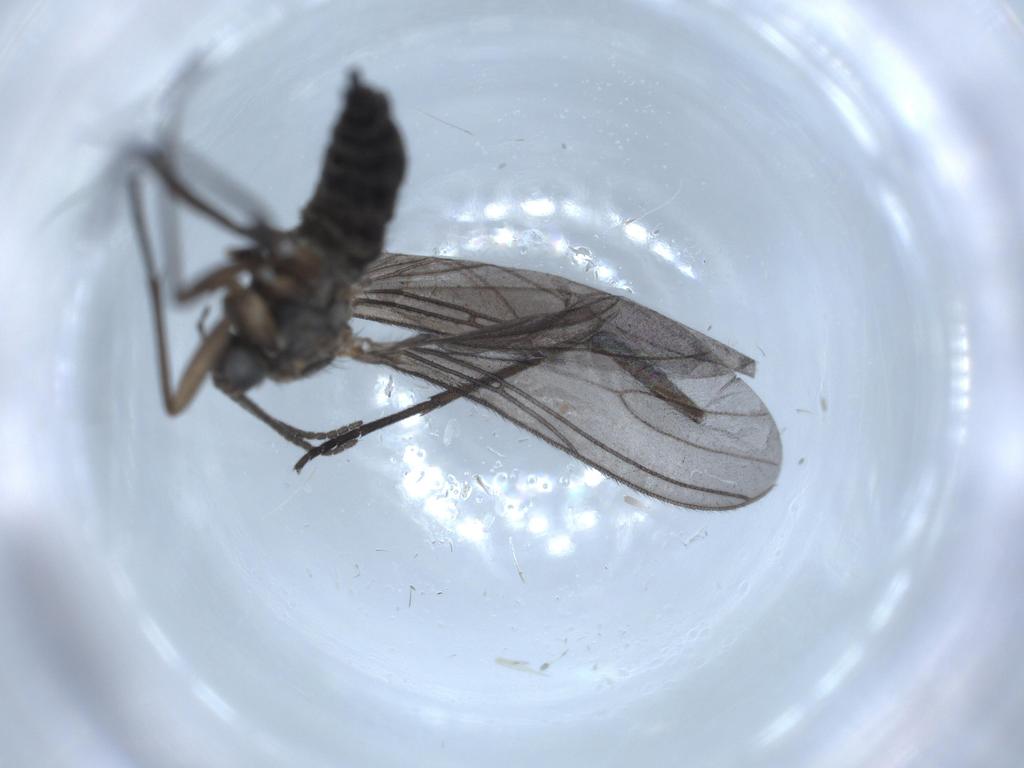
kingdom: Animalia
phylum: Arthropoda
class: Insecta
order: Diptera
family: Sciaridae
